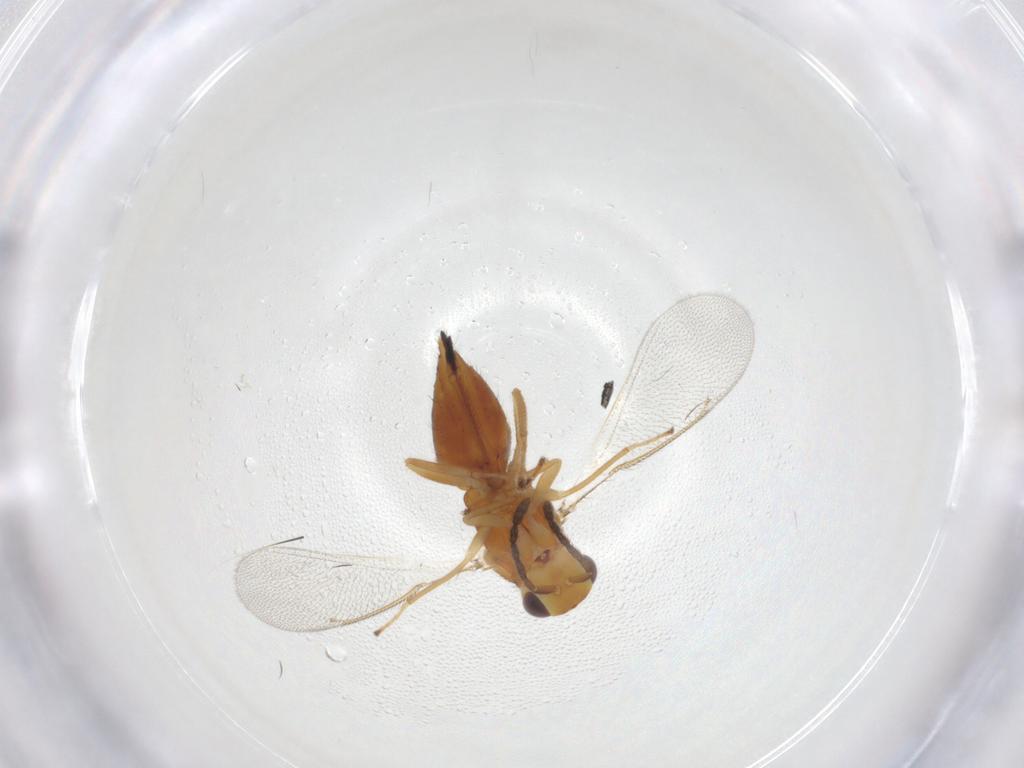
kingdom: Animalia
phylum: Arthropoda
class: Insecta
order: Hymenoptera
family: Eulophidae
